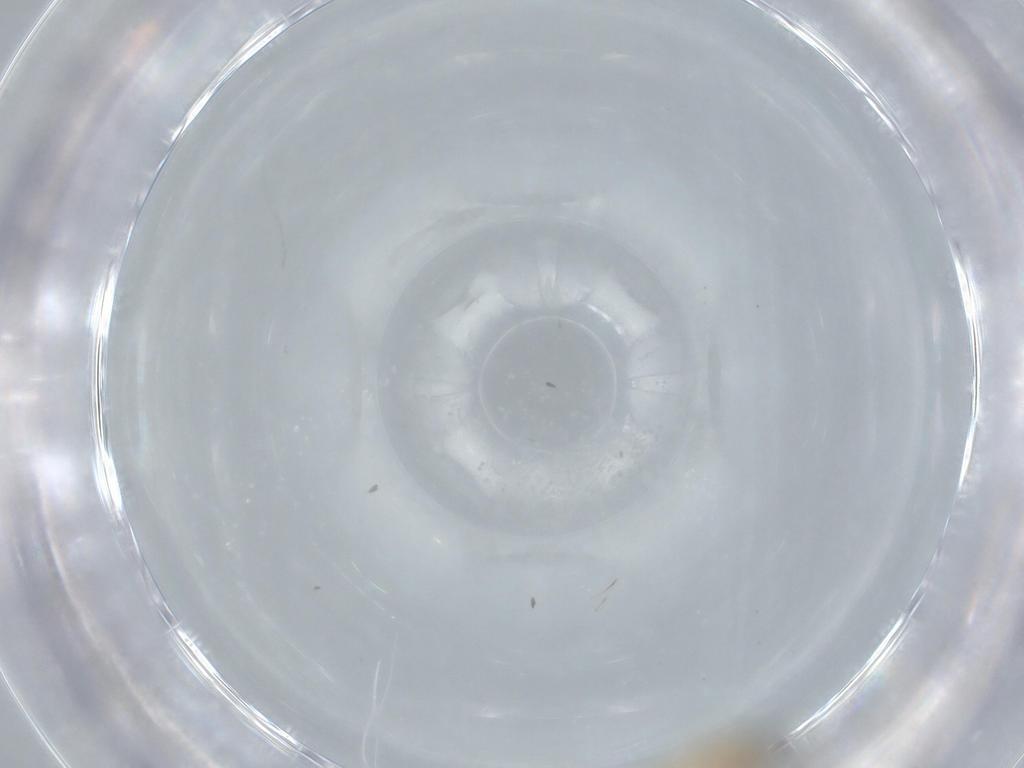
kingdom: Animalia
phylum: Arthropoda
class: Insecta
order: Diptera
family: Cecidomyiidae
